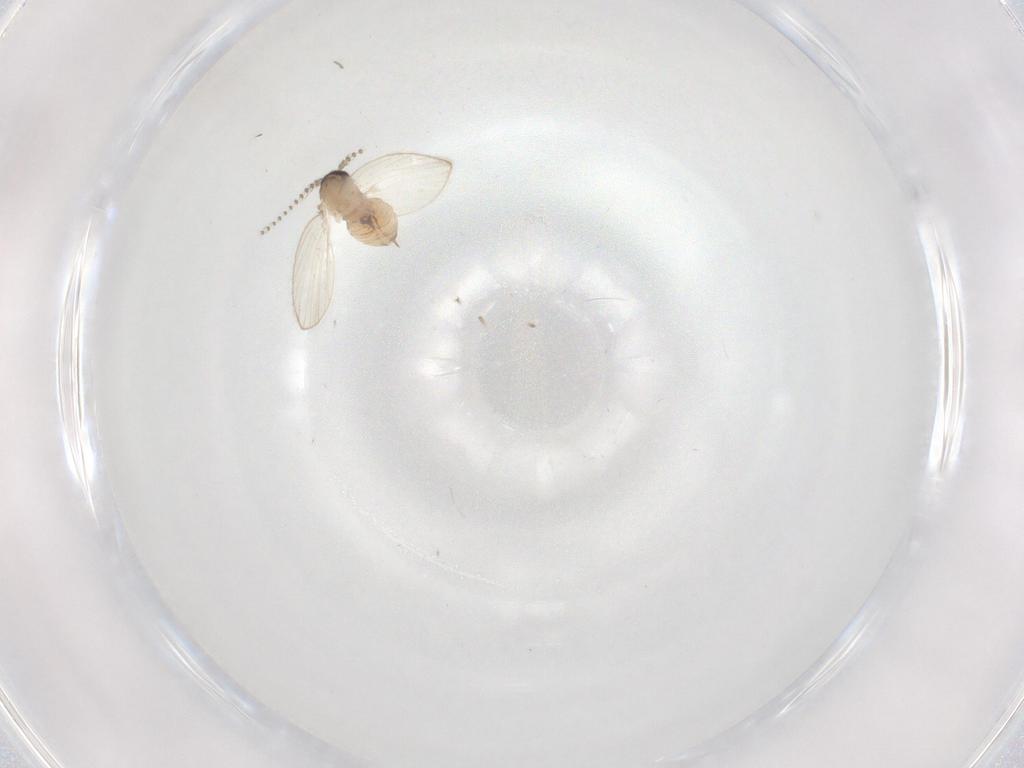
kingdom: Animalia
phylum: Arthropoda
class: Insecta
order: Diptera
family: Psychodidae
